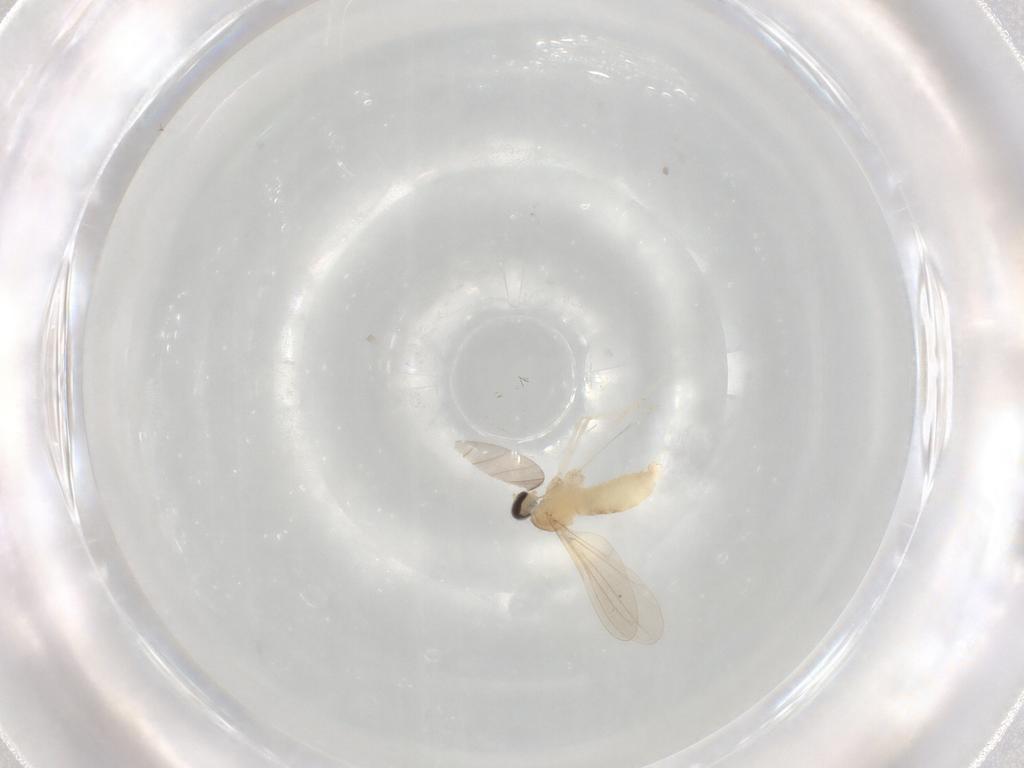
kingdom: Animalia
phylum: Arthropoda
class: Insecta
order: Diptera
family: Cecidomyiidae
